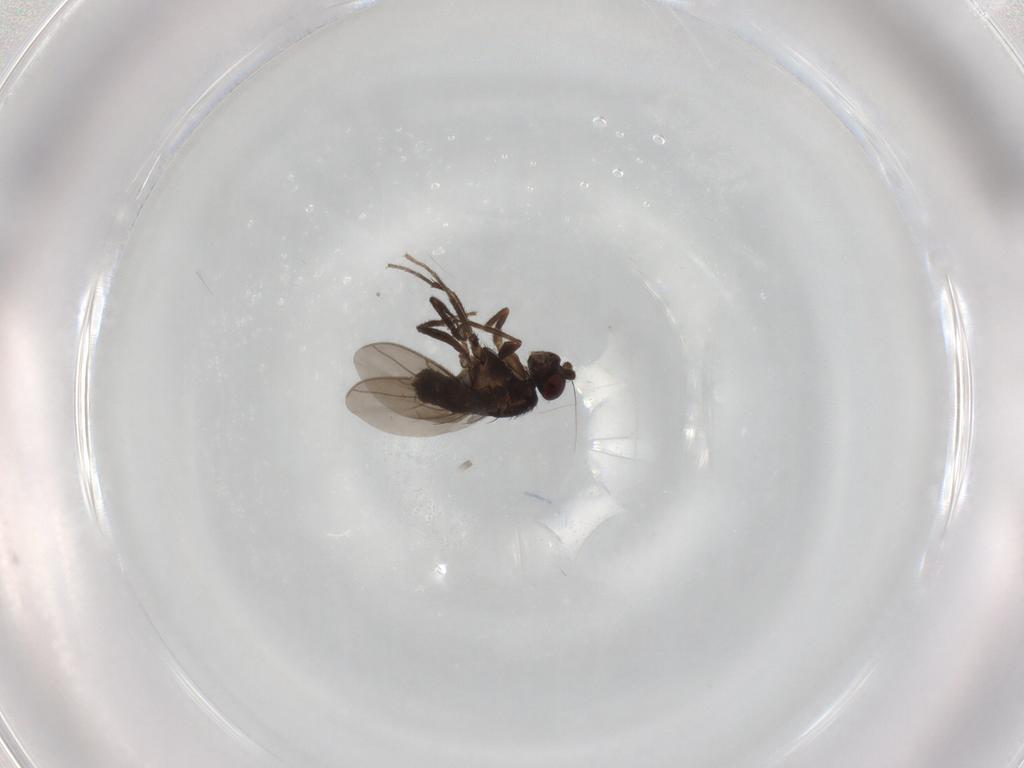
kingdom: Animalia
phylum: Arthropoda
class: Insecta
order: Diptera
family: Sphaeroceridae
